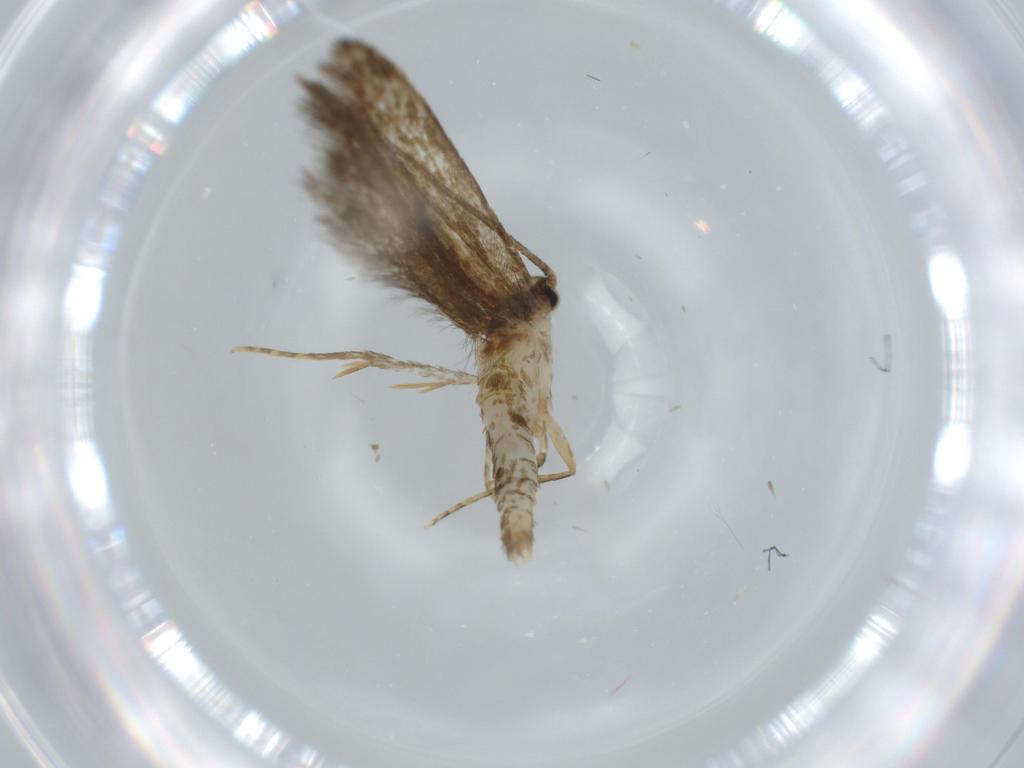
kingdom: Animalia
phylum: Arthropoda
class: Insecta
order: Lepidoptera
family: Tineidae
